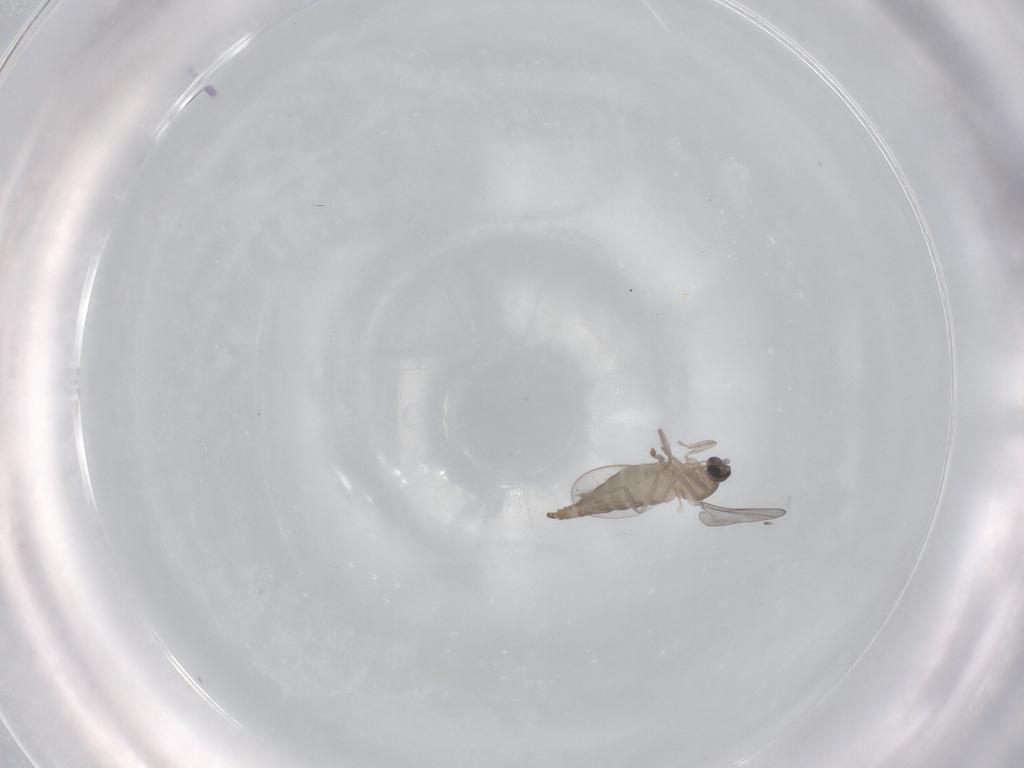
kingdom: Animalia
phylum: Arthropoda
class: Insecta
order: Diptera
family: Cecidomyiidae
